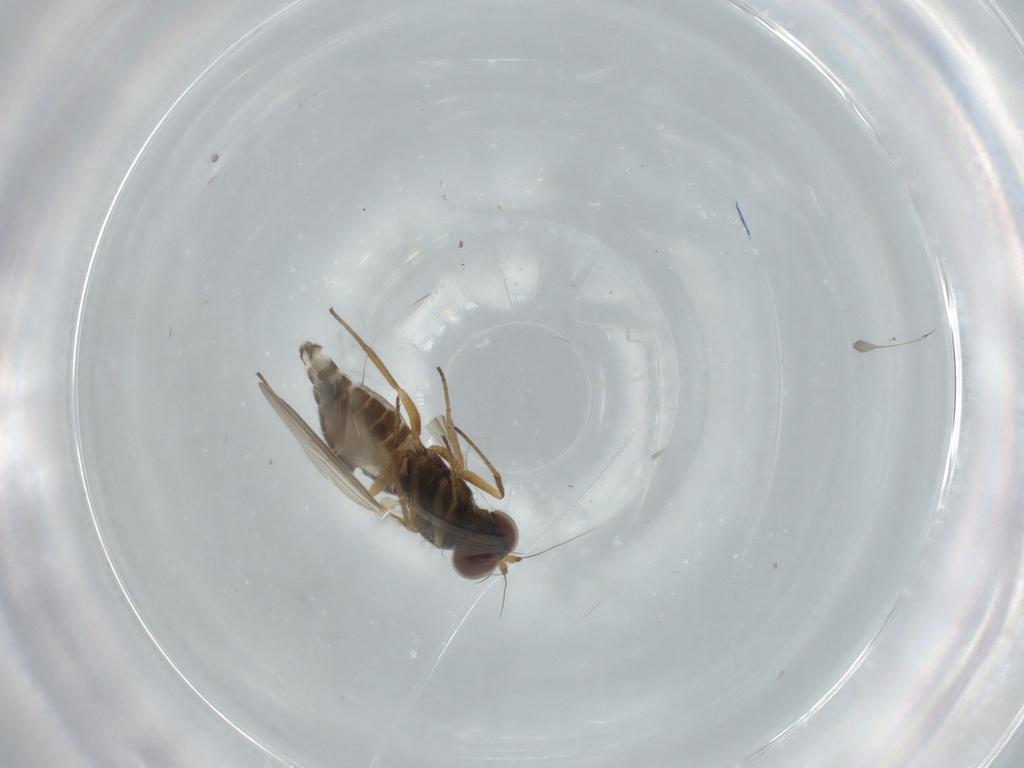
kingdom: Animalia
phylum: Arthropoda
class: Insecta
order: Diptera
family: Dolichopodidae
